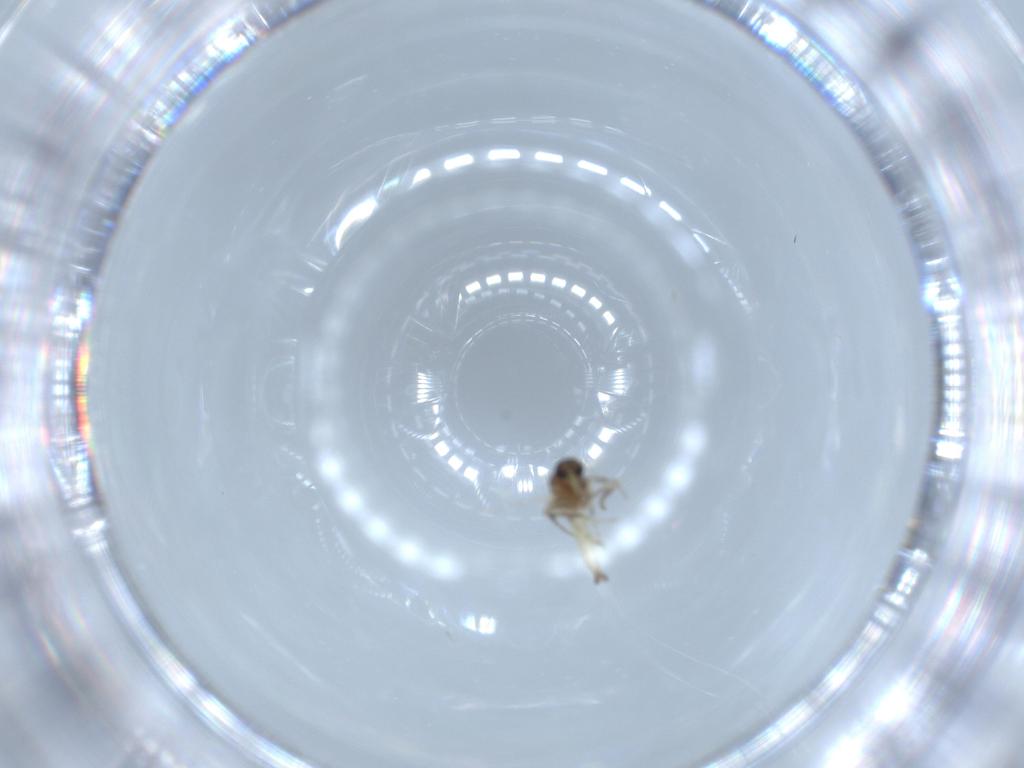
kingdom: Animalia
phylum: Arthropoda
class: Insecta
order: Diptera
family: Ceratopogonidae
